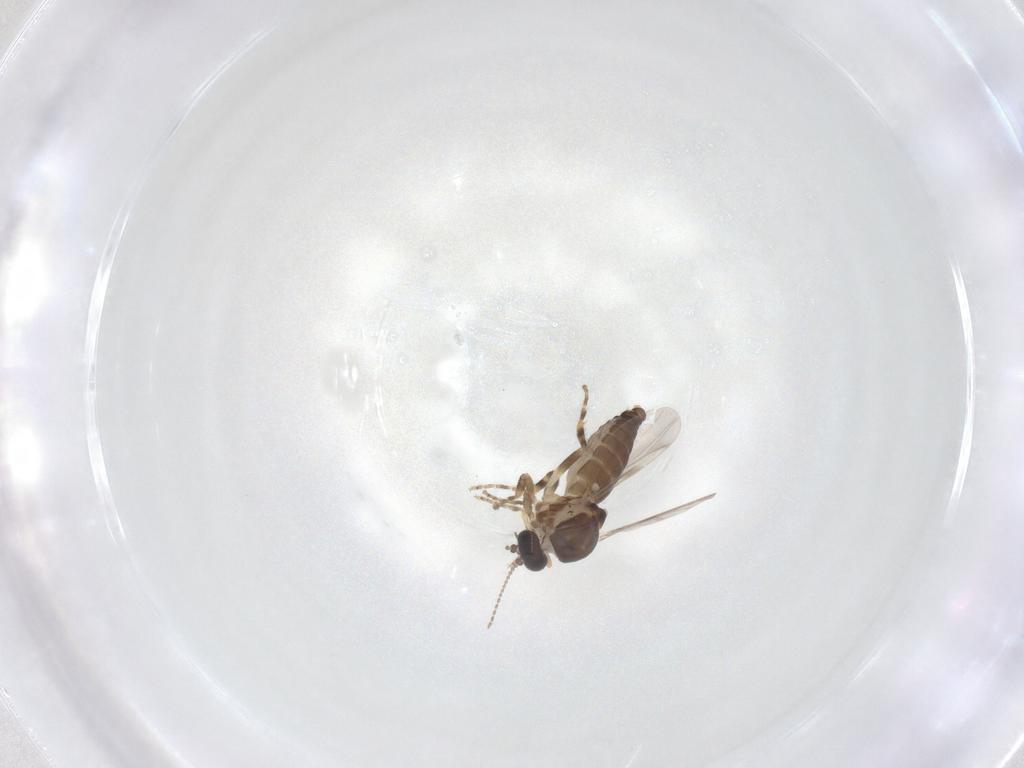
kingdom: Animalia
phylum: Arthropoda
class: Insecta
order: Diptera
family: Ceratopogonidae
